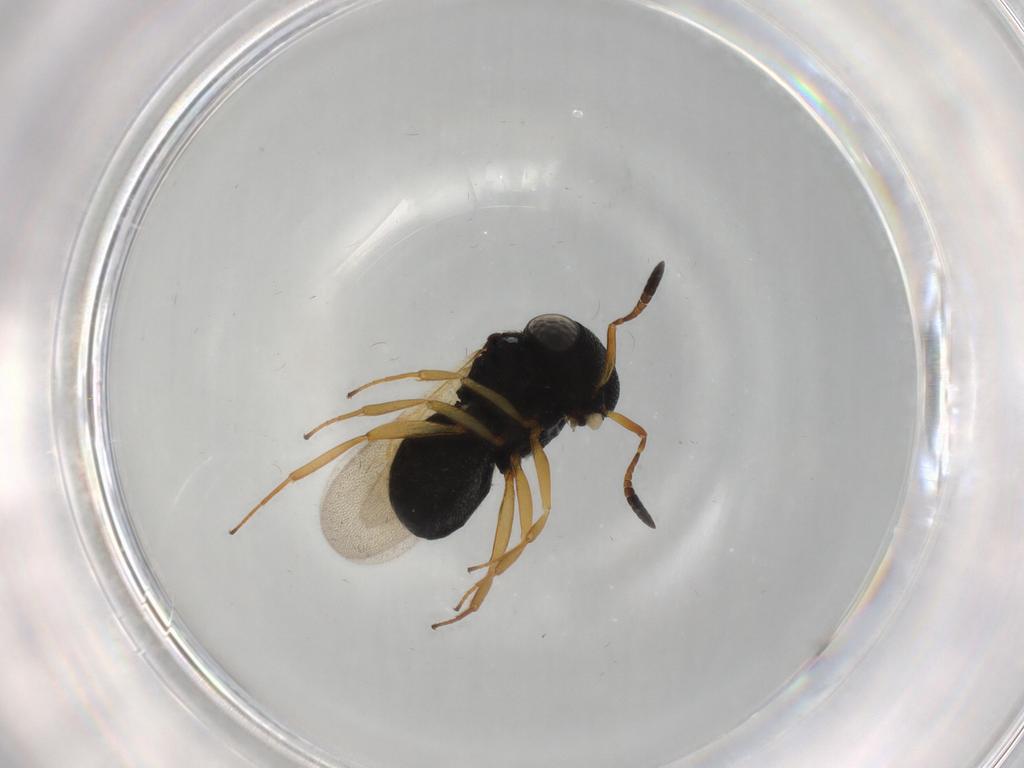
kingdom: Animalia
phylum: Arthropoda
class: Insecta
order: Hymenoptera
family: Scelionidae
